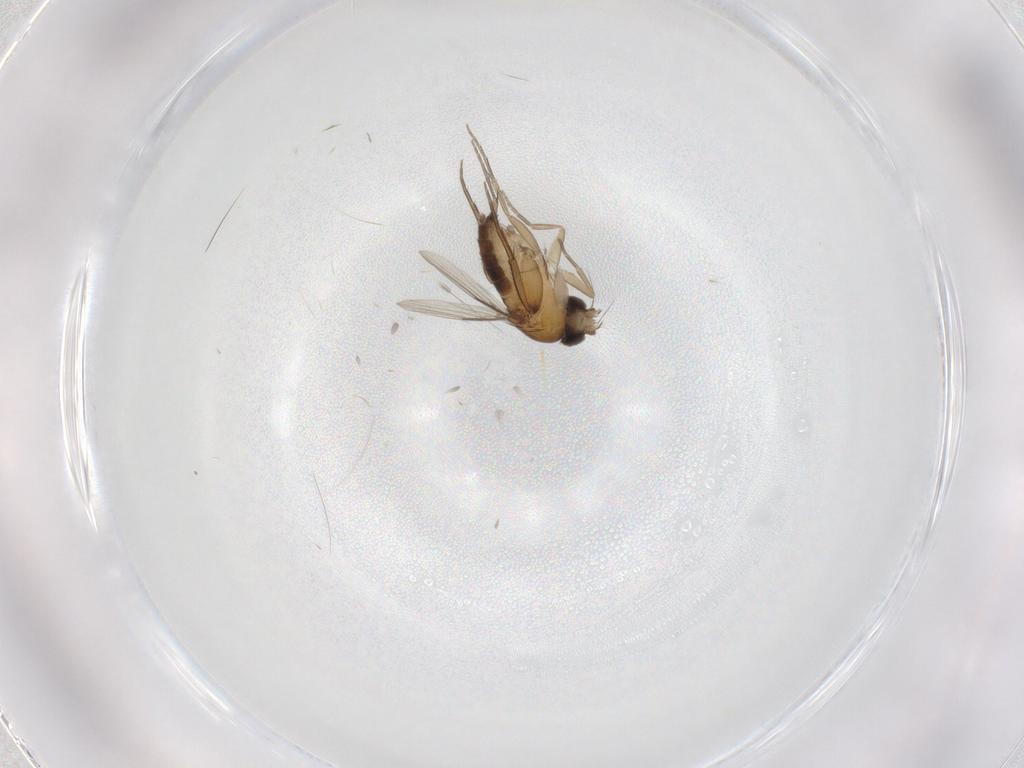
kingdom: Animalia
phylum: Arthropoda
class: Insecta
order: Diptera
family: Phoridae
